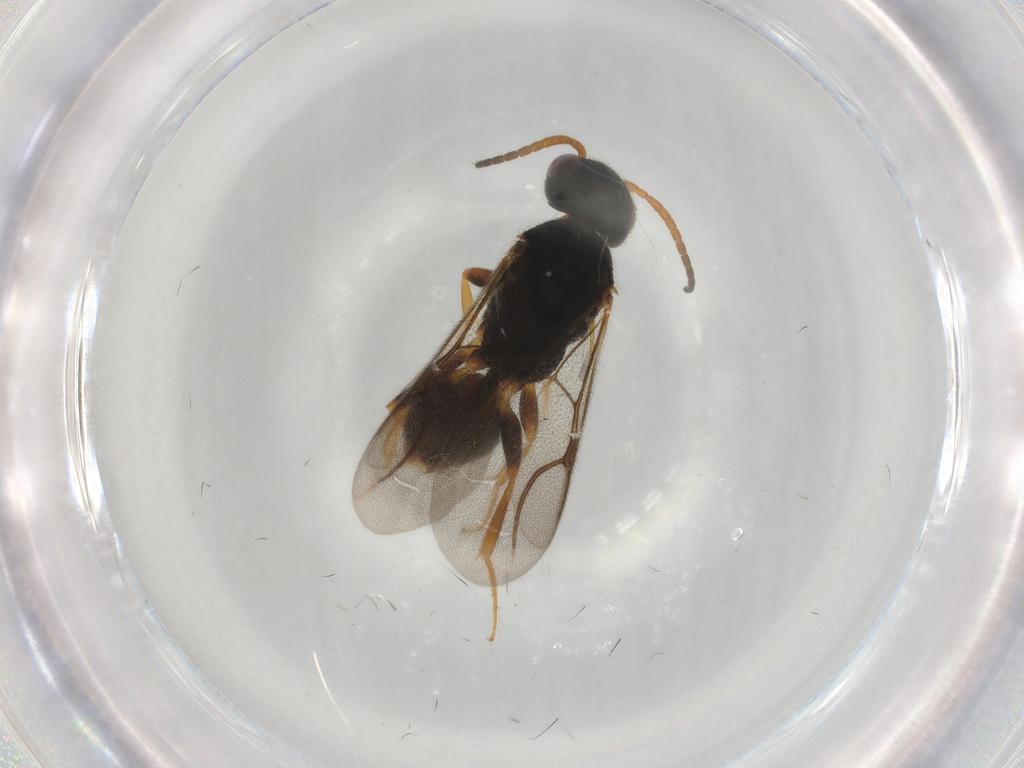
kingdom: Animalia
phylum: Arthropoda
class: Insecta
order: Hymenoptera
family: Bethylidae
